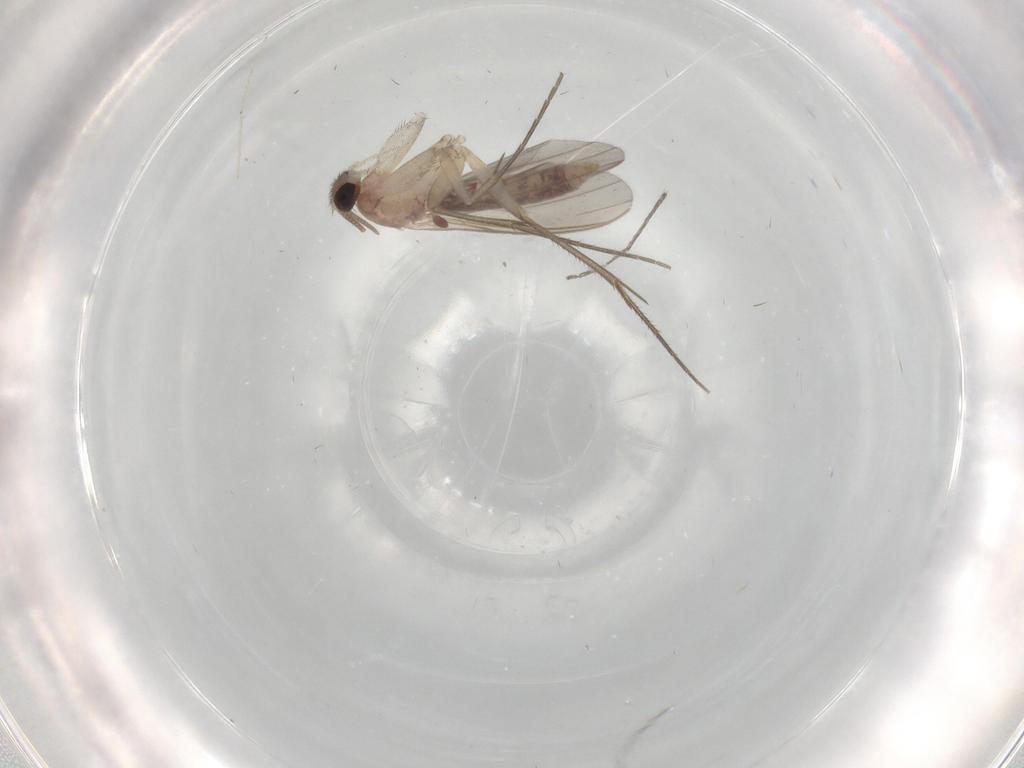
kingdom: Animalia
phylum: Arthropoda
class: Insecta
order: Diptera
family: Mycetophilidae
